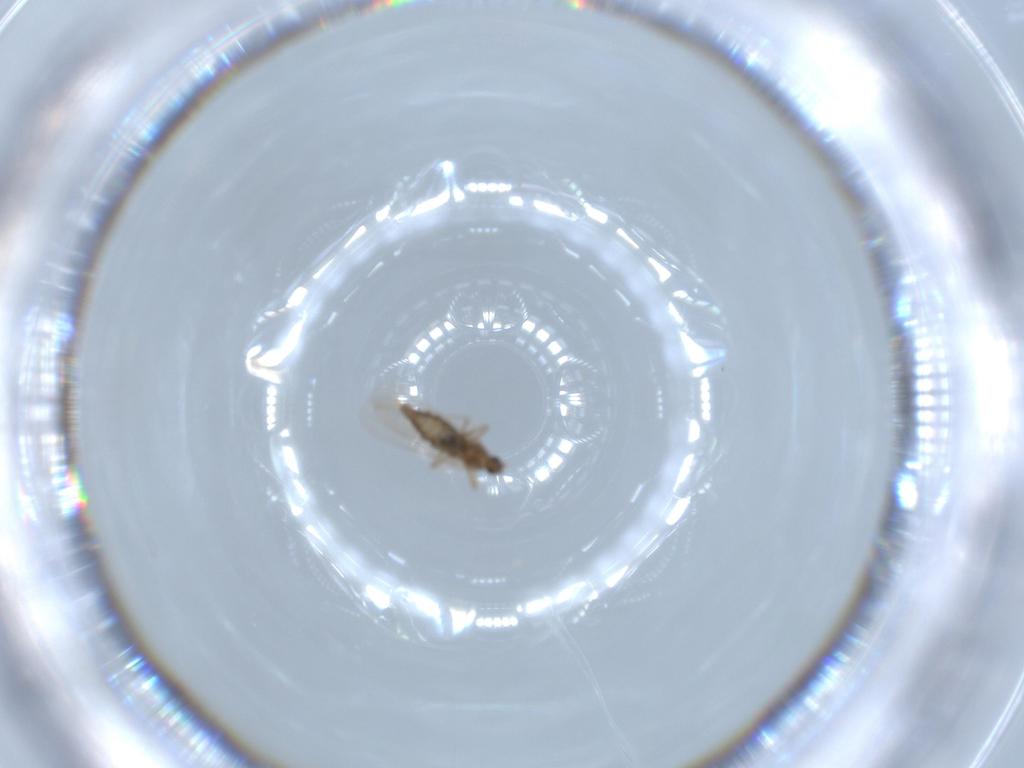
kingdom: Animalia
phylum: Arthropoda
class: Insecta
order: Diptera
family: Cecidomyiidae
